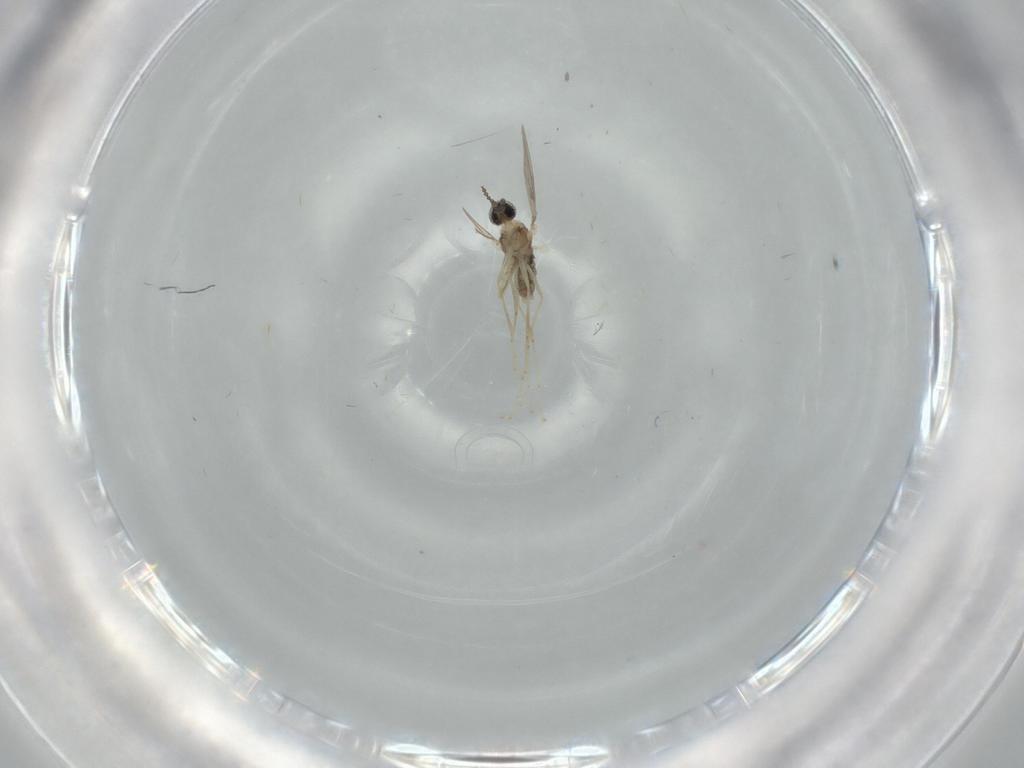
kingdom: Animalia
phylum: Arthropoda
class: Insecta
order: Diptera
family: Cecidomyiidae
